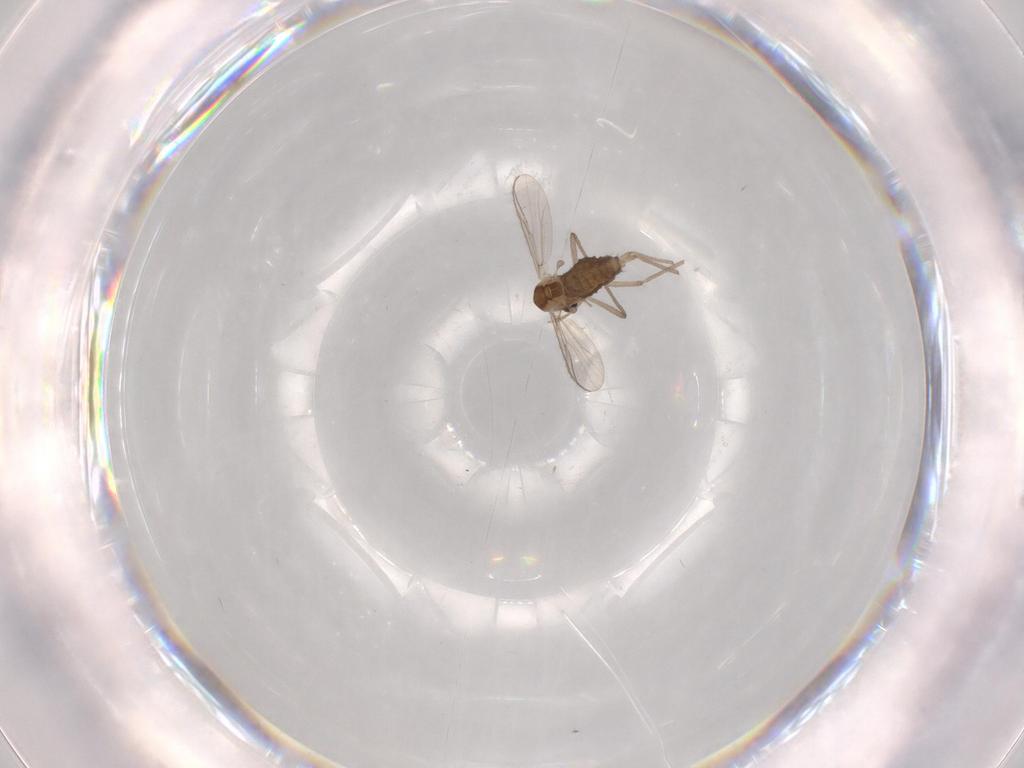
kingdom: Animalia
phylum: Arthropoda
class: Insecta
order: Diptera
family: Chironomidae
